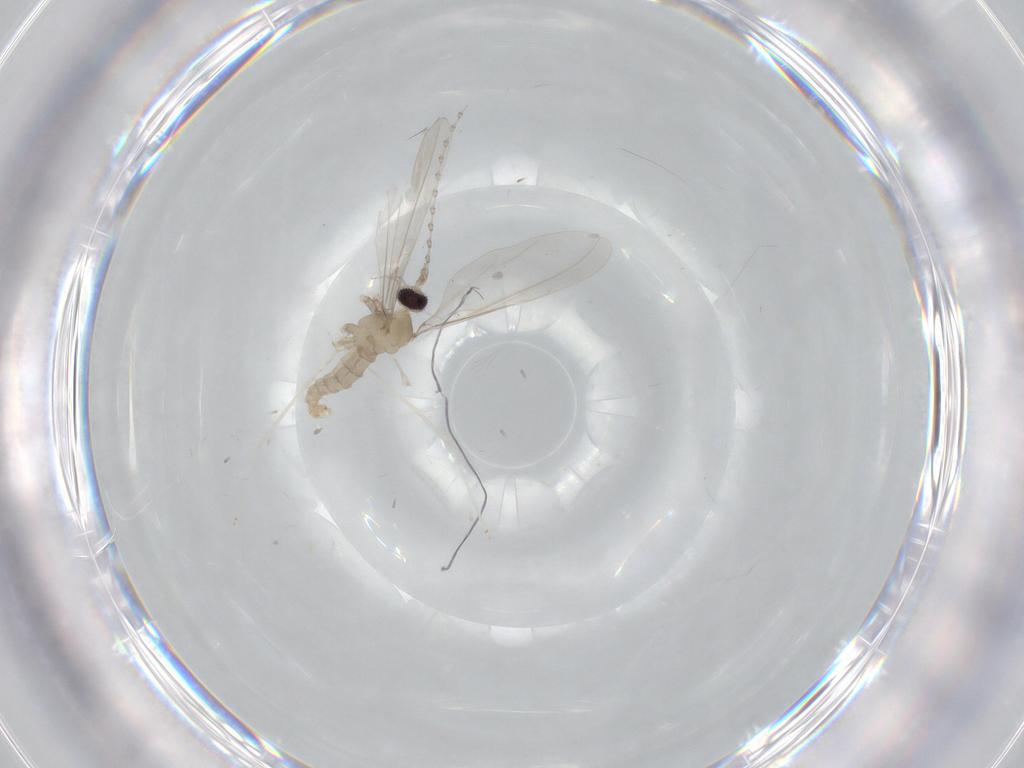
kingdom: Animalia
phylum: Arthropoda
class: Insecta
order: Diptera
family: Cecidomyiidae
